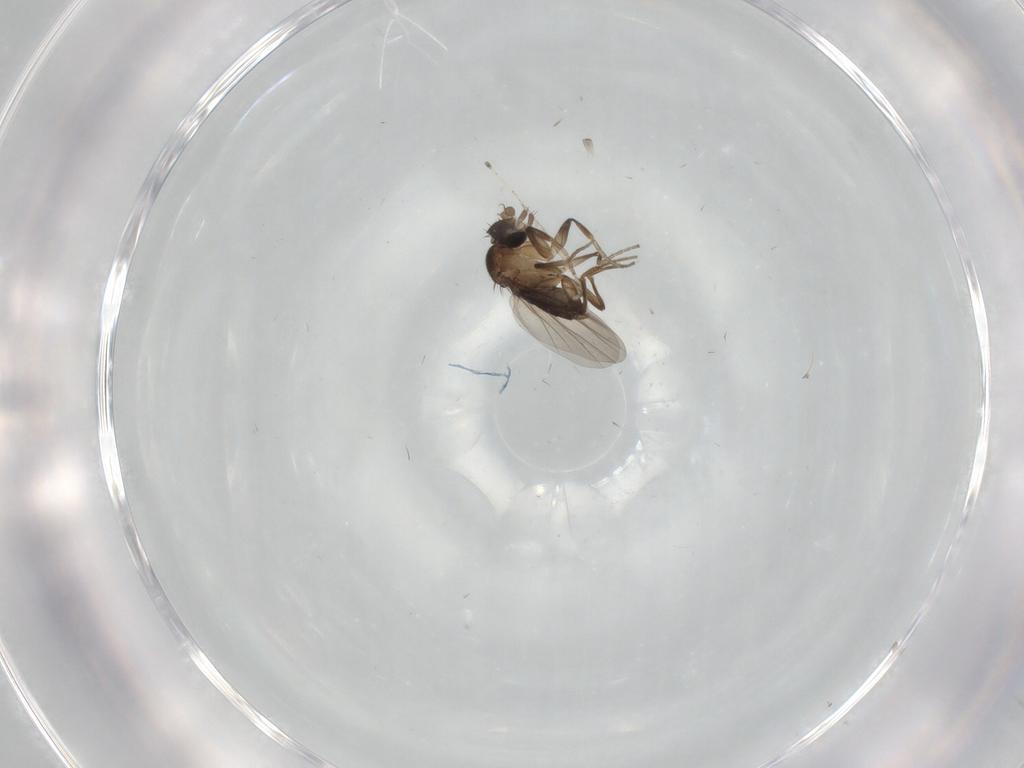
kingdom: Animalia
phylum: Arthropoda
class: Insecta
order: Diptera
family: Phoridae
